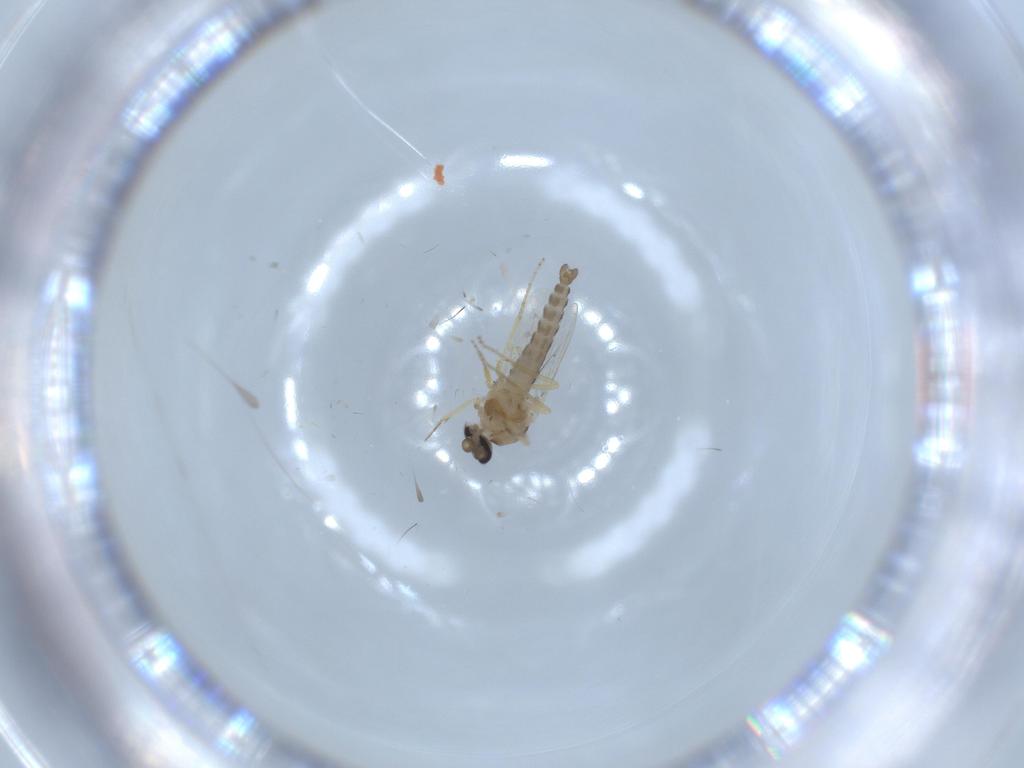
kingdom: Animalia
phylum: Arthropoda
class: Insecta
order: Diptera
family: Ceratopogonidae
